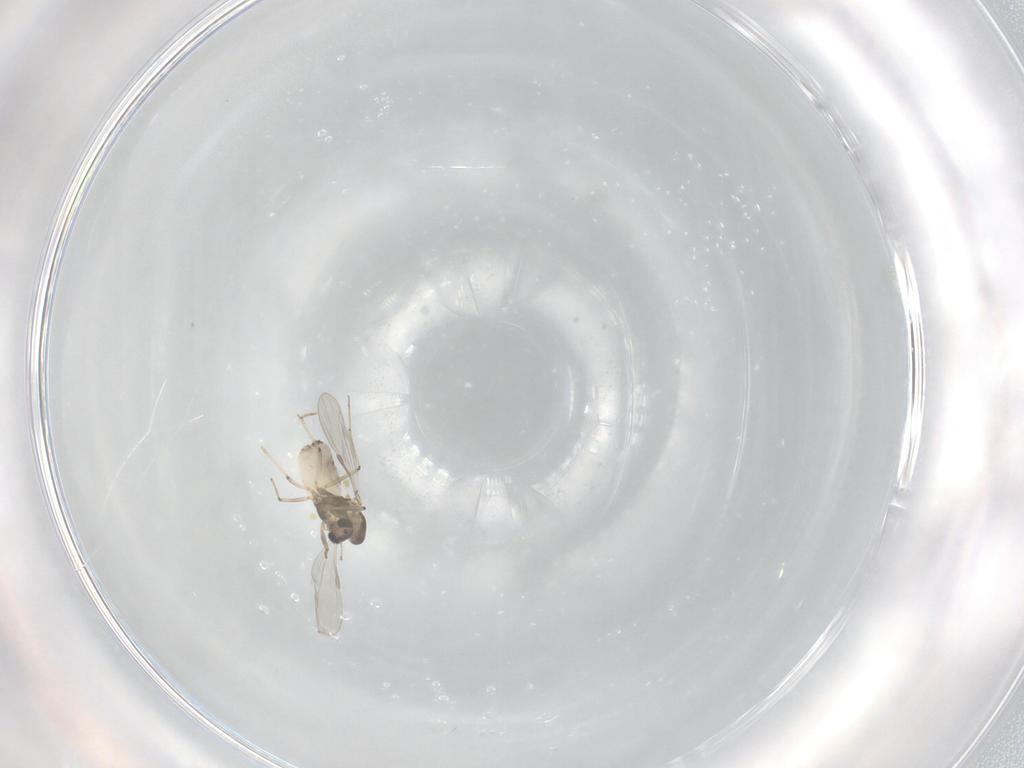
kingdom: Animalia
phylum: Arthropoda
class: Insecta
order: Diptera
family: Chironomidae
